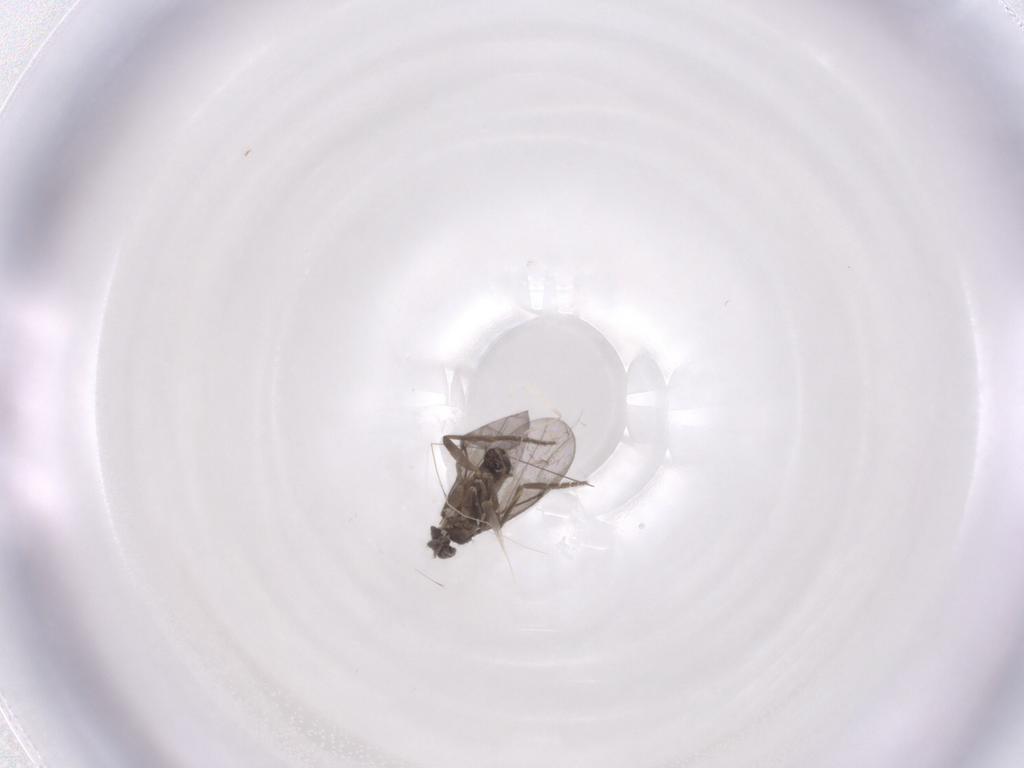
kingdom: Animalia
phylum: Arthropoda
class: Insecta
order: Diptera
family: Cecidomyiidae
